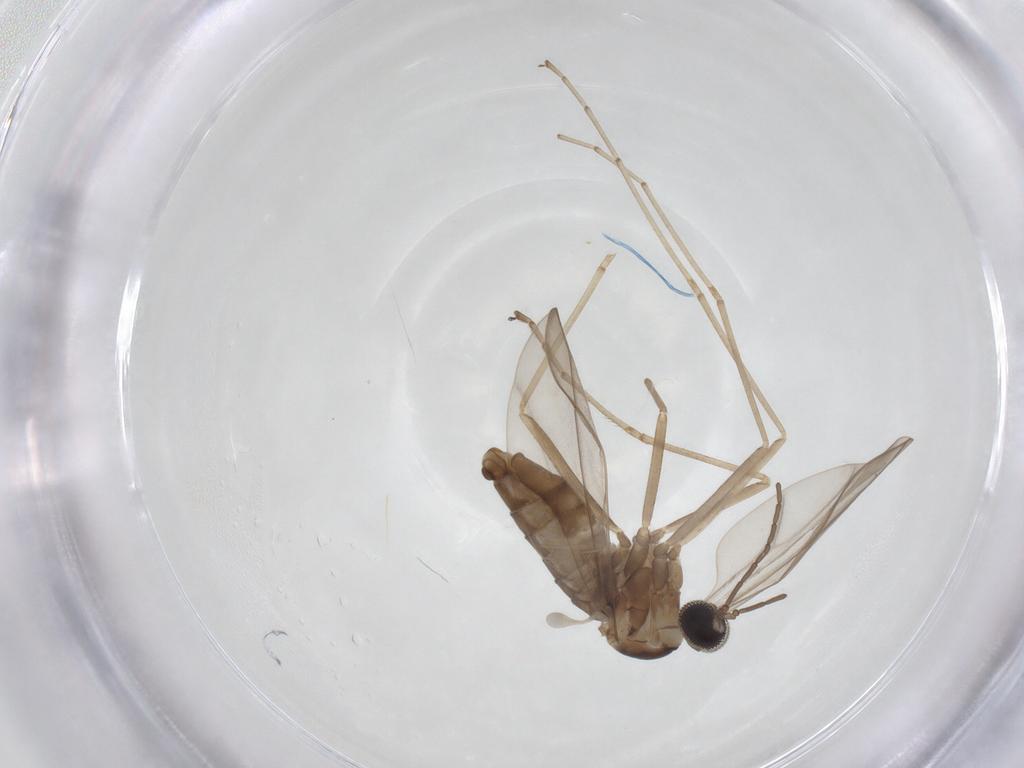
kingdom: Animalia
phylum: Arthropoda
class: Insecta
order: Diptera
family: Cecidomyiidae
